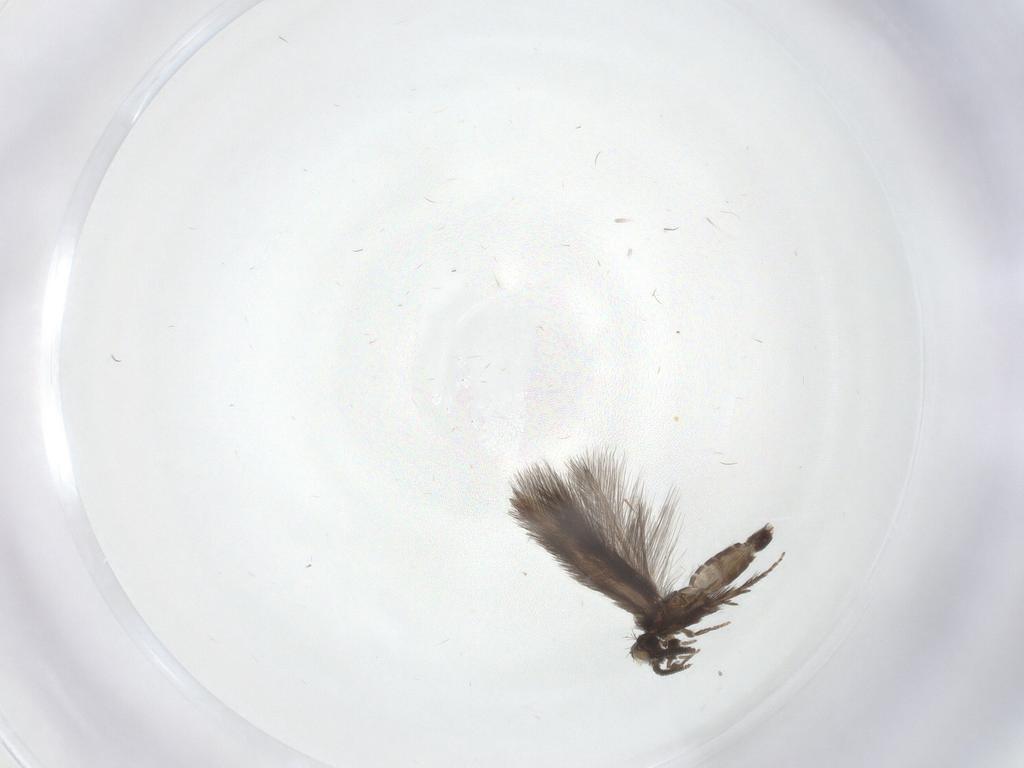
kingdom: Animalia
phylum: Arthropoda
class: Insecta
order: Trichoptera
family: Hydroptilidae
